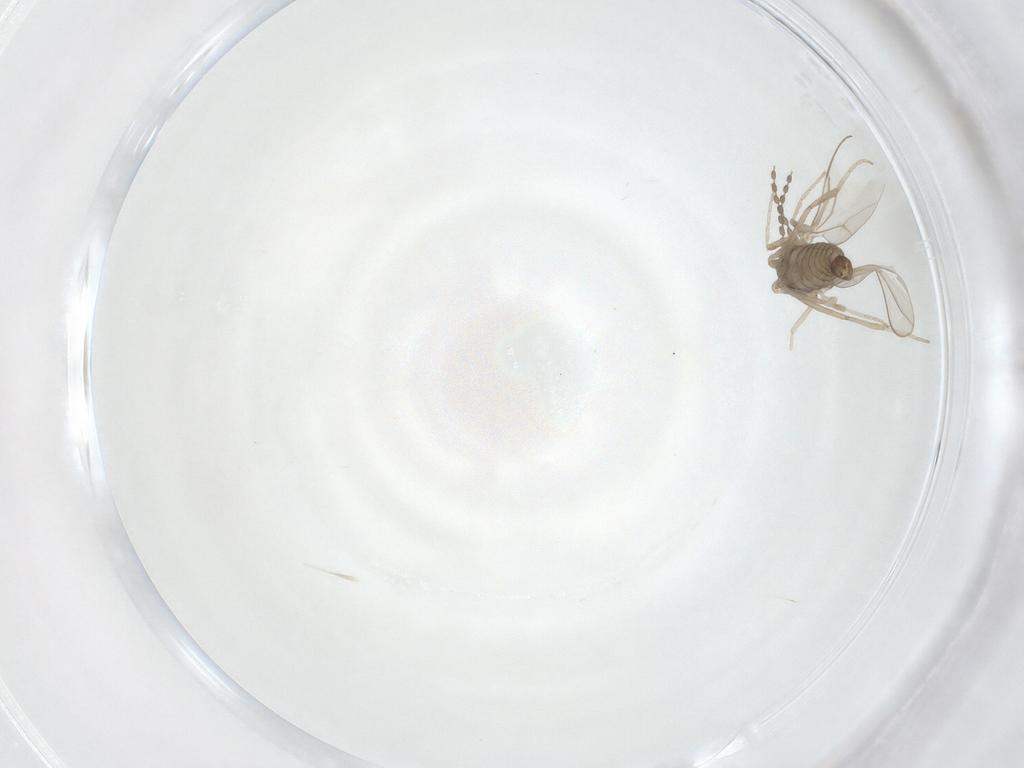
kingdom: Animalia
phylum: Arthropoda
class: Insecta
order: Diptera
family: Cecidomyiidae
